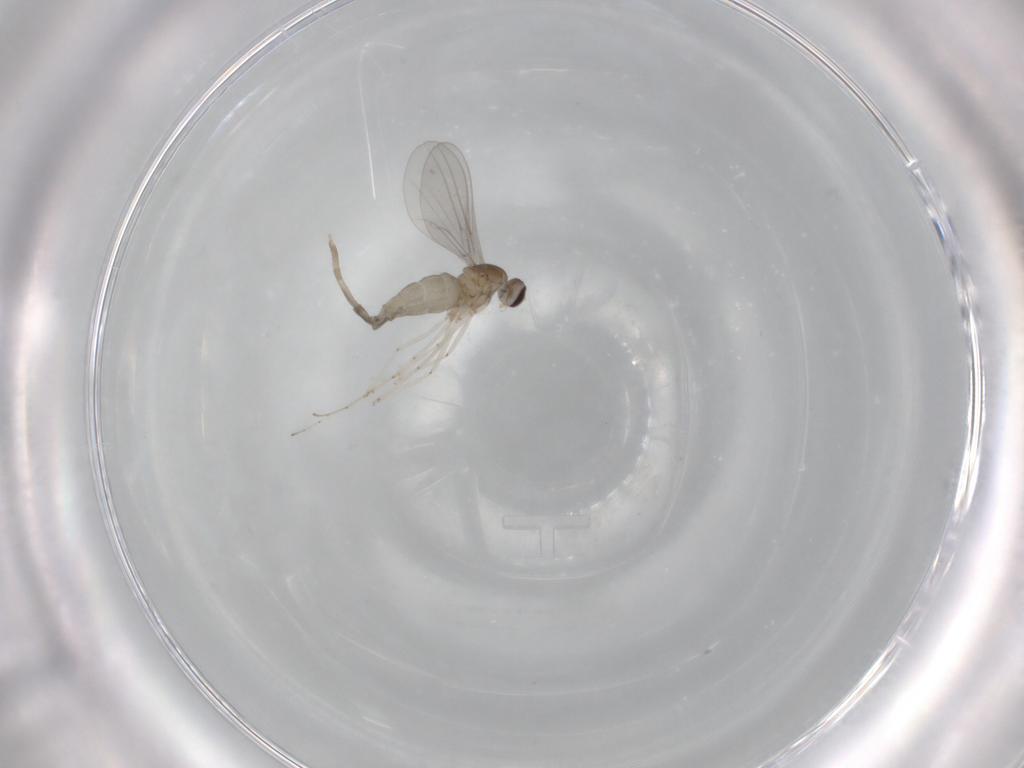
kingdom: Animalia
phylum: Arthropoda
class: Insecta
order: Diptera
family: Cecidomyiidae
